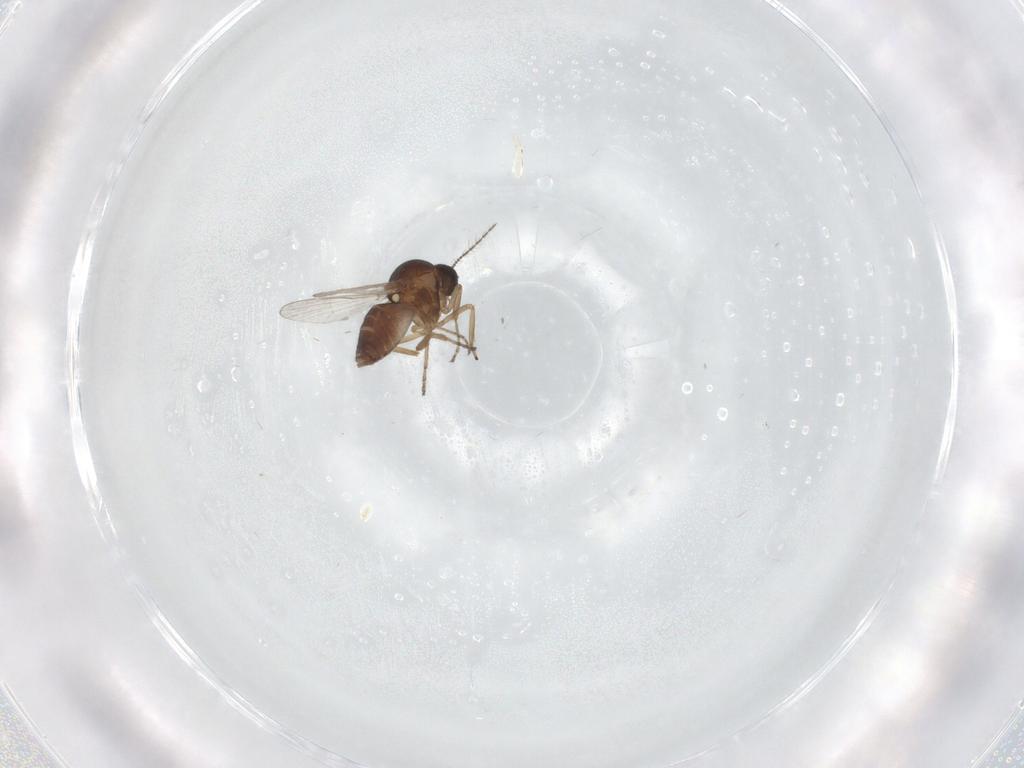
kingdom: Animalia
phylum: Arthropoda
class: Insecta
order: Diptera
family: Cecidomyiidae
